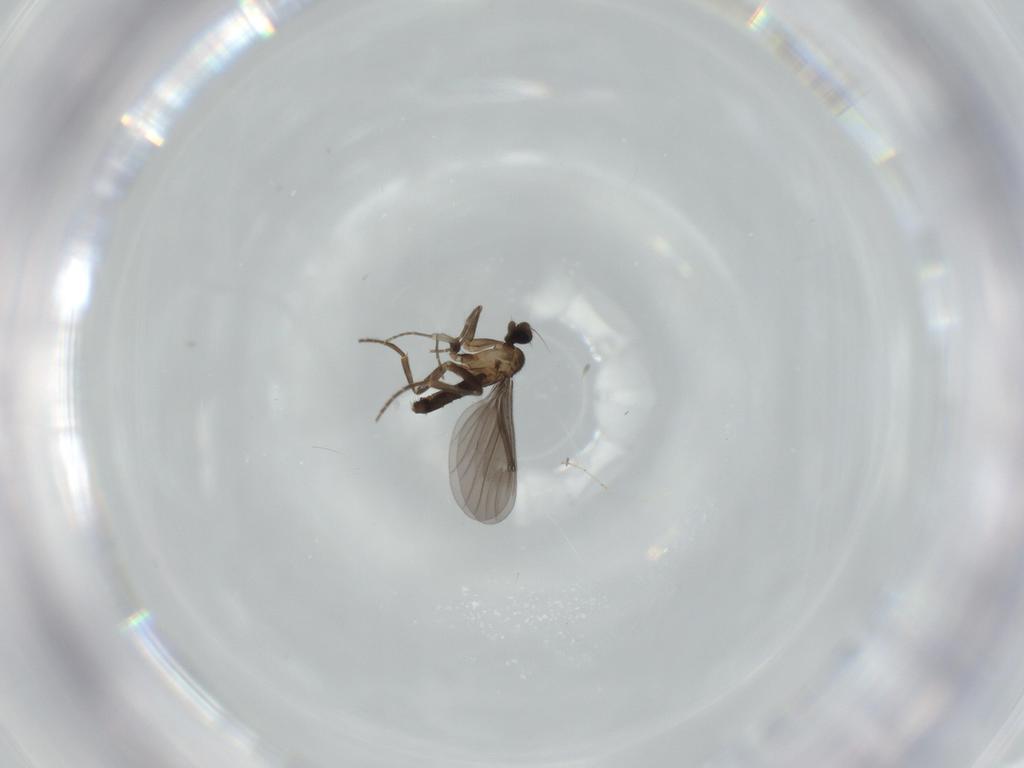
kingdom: Animalia
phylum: Arthropoda
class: Insecta
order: Diptera
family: Phoridae
